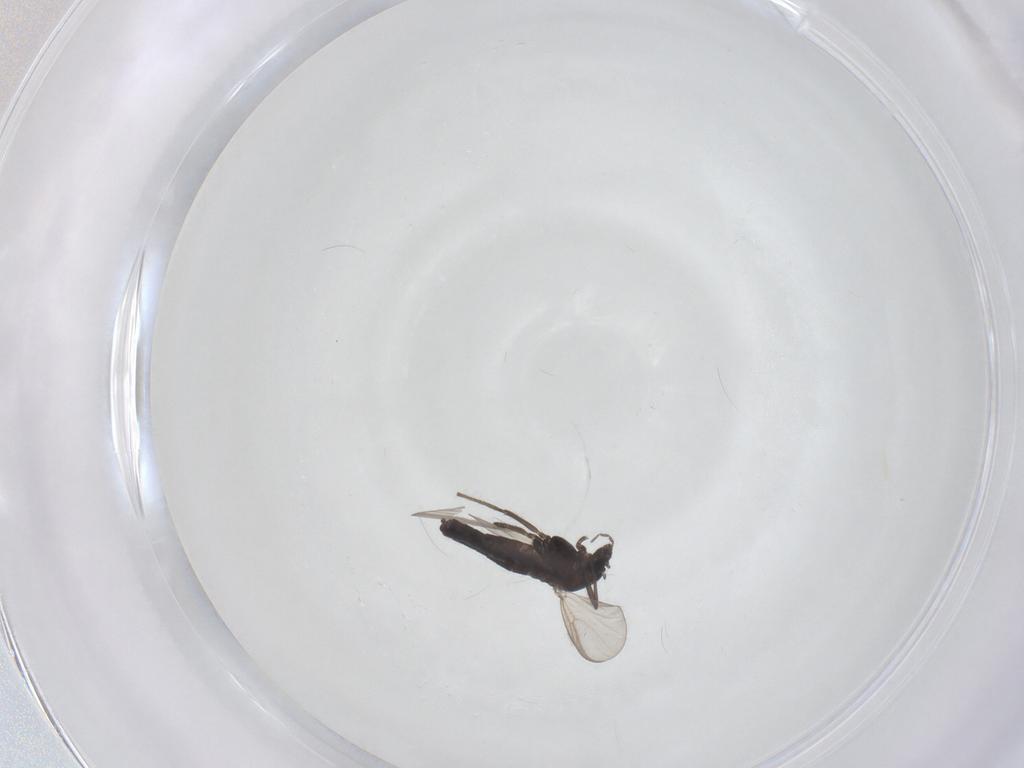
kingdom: Animalia
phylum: Arthropoda
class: Insecta
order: Diptera
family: Chironomidae
